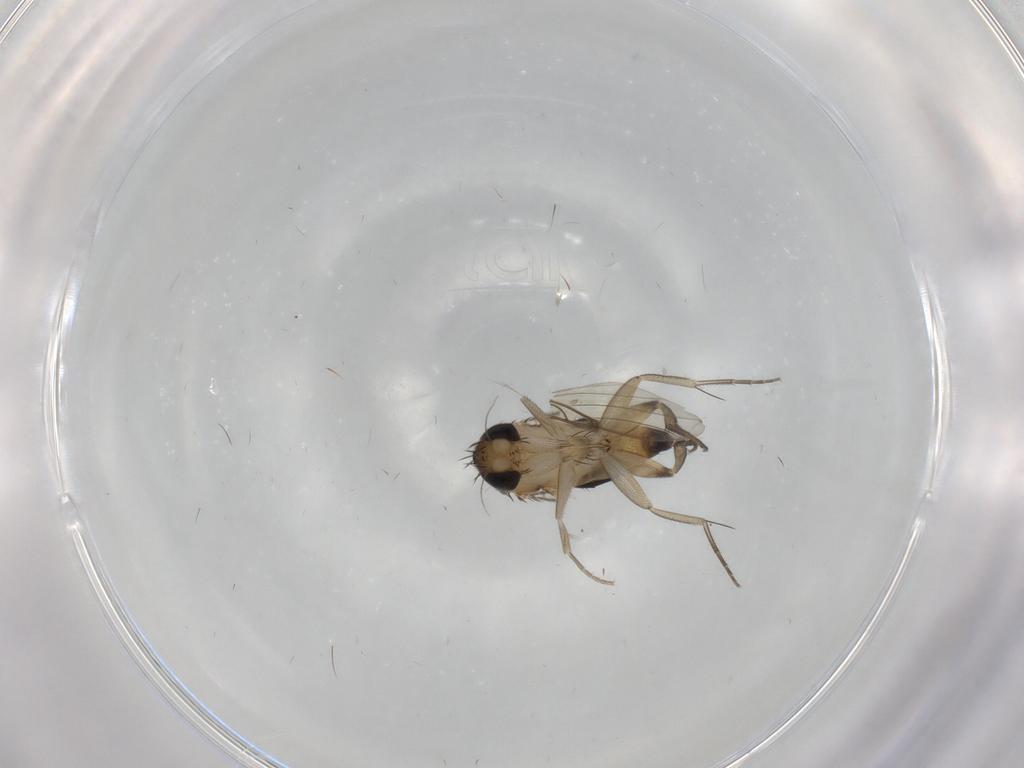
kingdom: Animalia
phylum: Arthropoda
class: Insecta
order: Diptera
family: Phoridae
